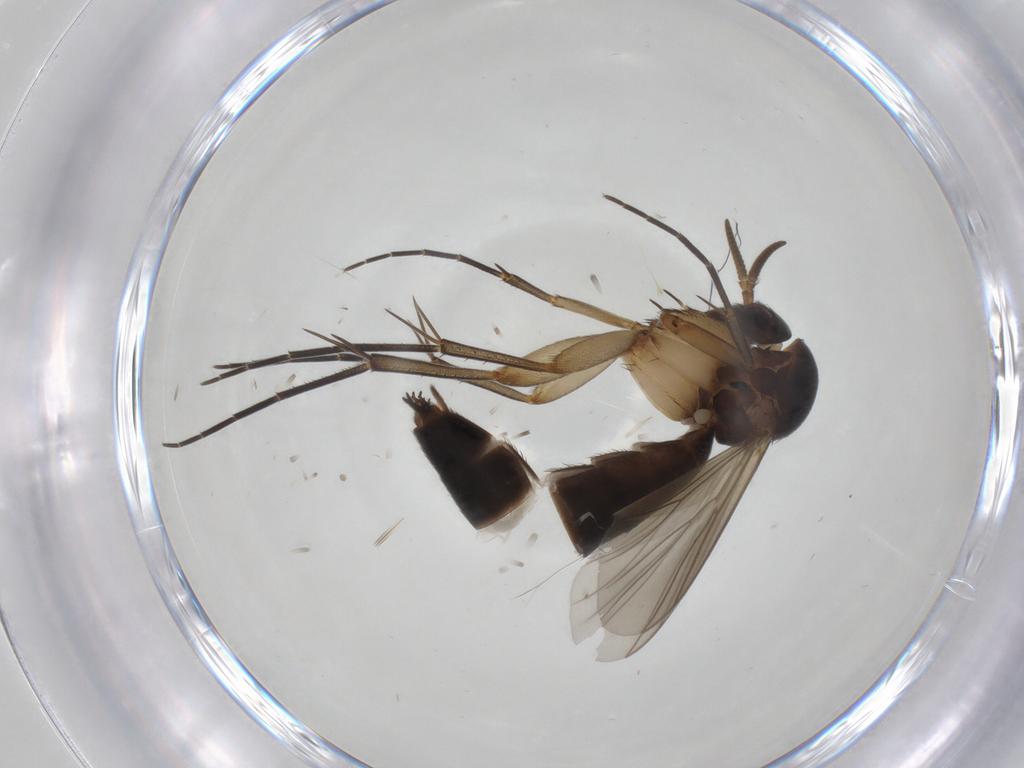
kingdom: Animalia
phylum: Arthropoda
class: Insecta
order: Diptera
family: Mycetophilidae
